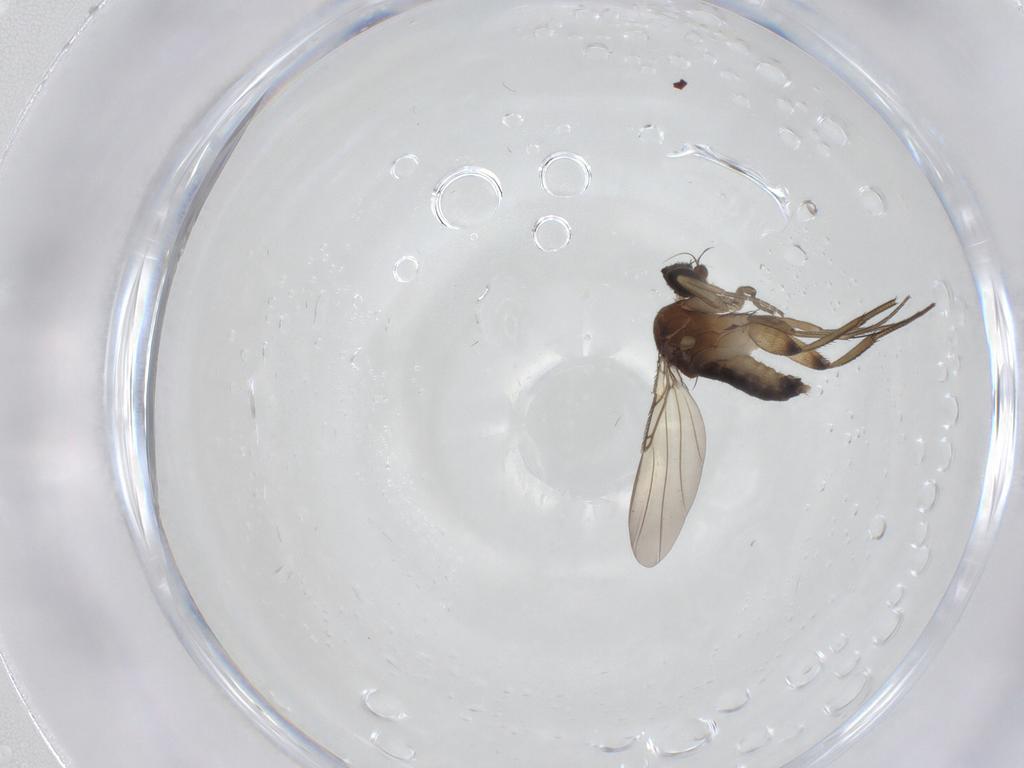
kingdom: Animalia
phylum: Arthropoda
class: Insecta
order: Diptera
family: Phoridae
